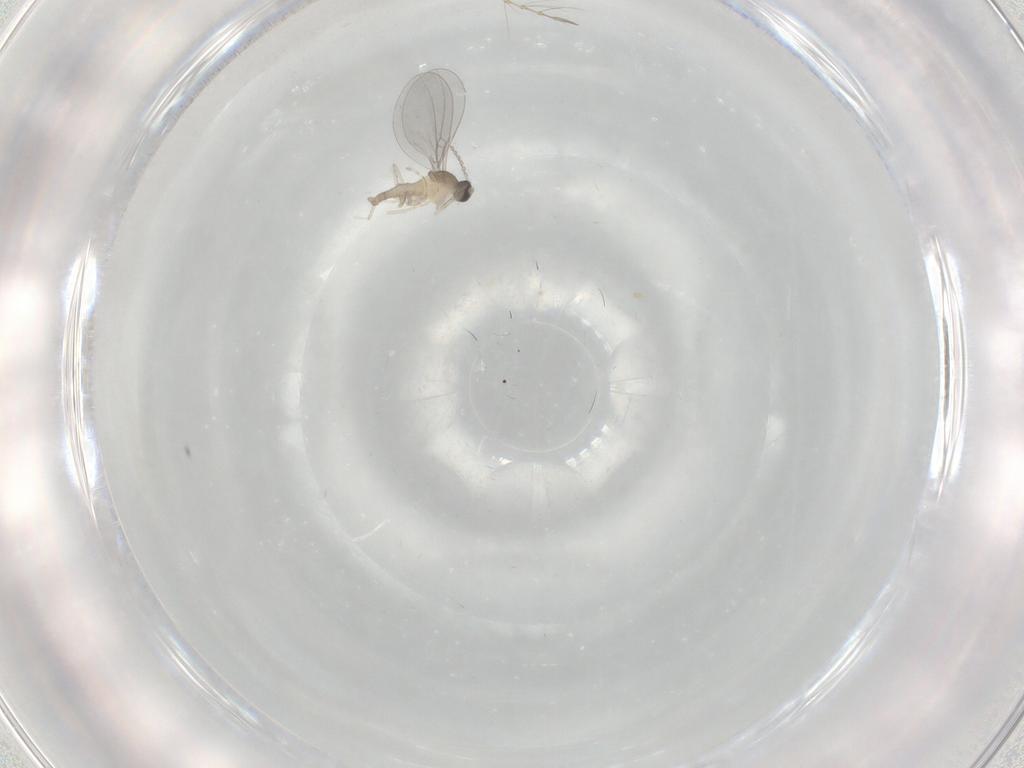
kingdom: Animalia
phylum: Arthropoda
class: Insecta
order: Diptera
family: Cecidomyiidae
